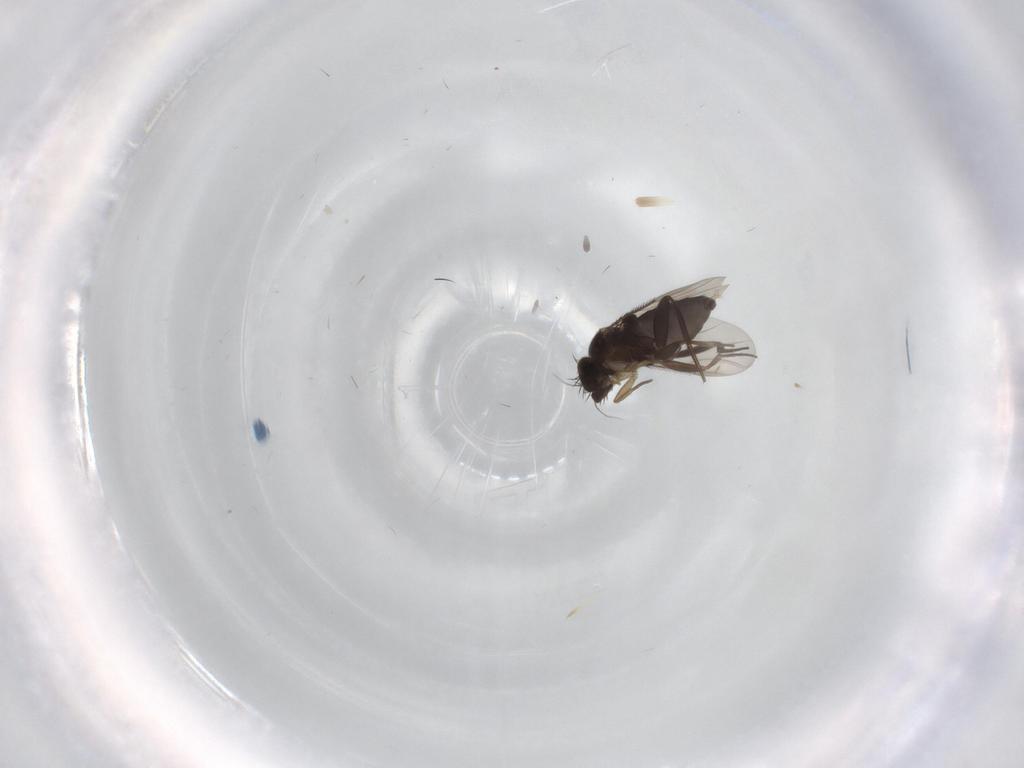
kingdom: Animalia
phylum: Arthropoda
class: Insecta
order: Diptera
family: Phoridae
